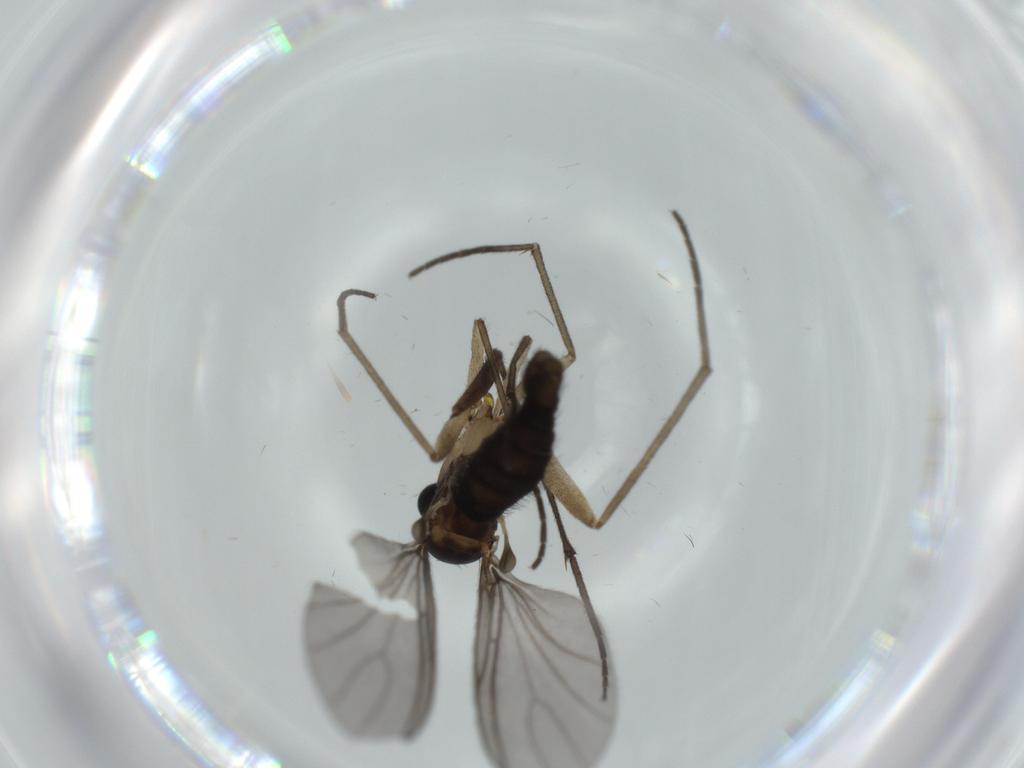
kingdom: Animalia
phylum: Arthropoda
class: Insecta
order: Diptera
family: Sciaridae
